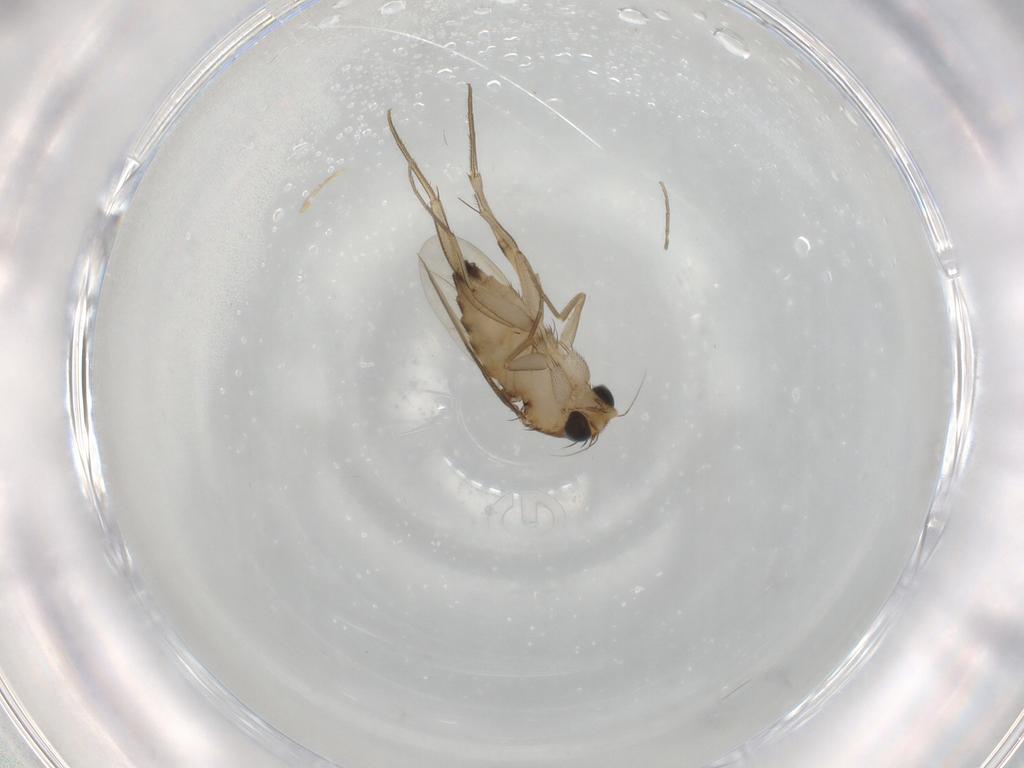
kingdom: Animalia
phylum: Arthropoda
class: Insecta
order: Diptera
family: Phoridae
